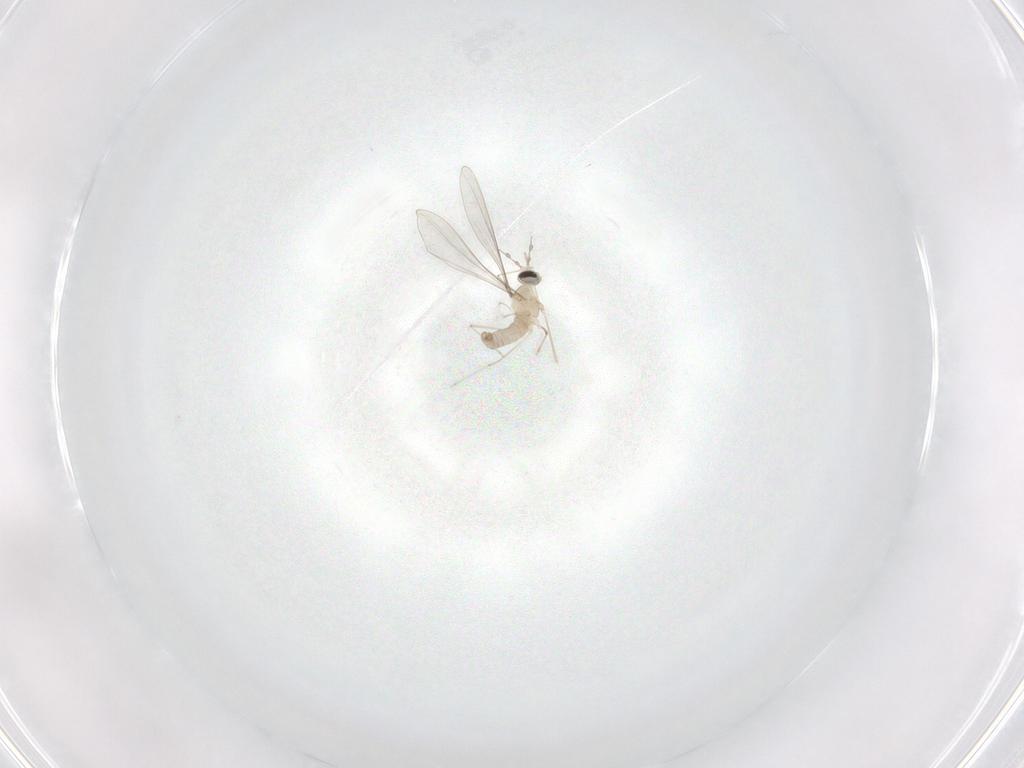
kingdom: Animalia
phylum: Arthropoda
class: Insecta
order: Diptera
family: Cecidomyiidae
